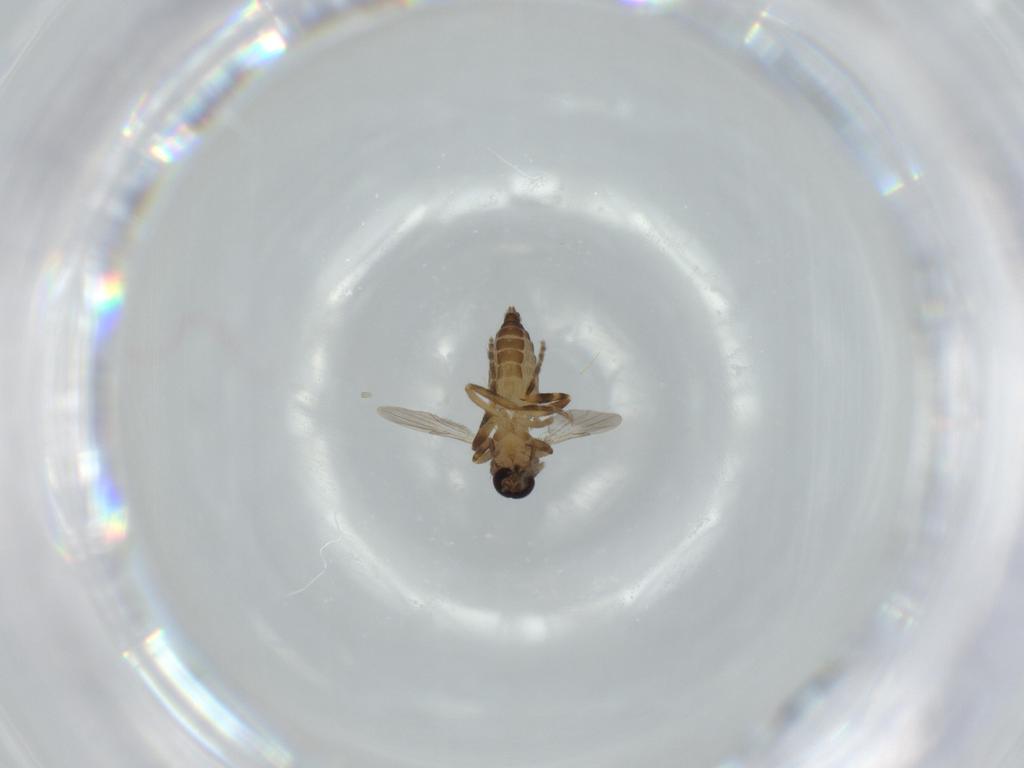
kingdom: Animalia
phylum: Arthropoda
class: Insecta
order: Diptera
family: Ceratopogonidae
